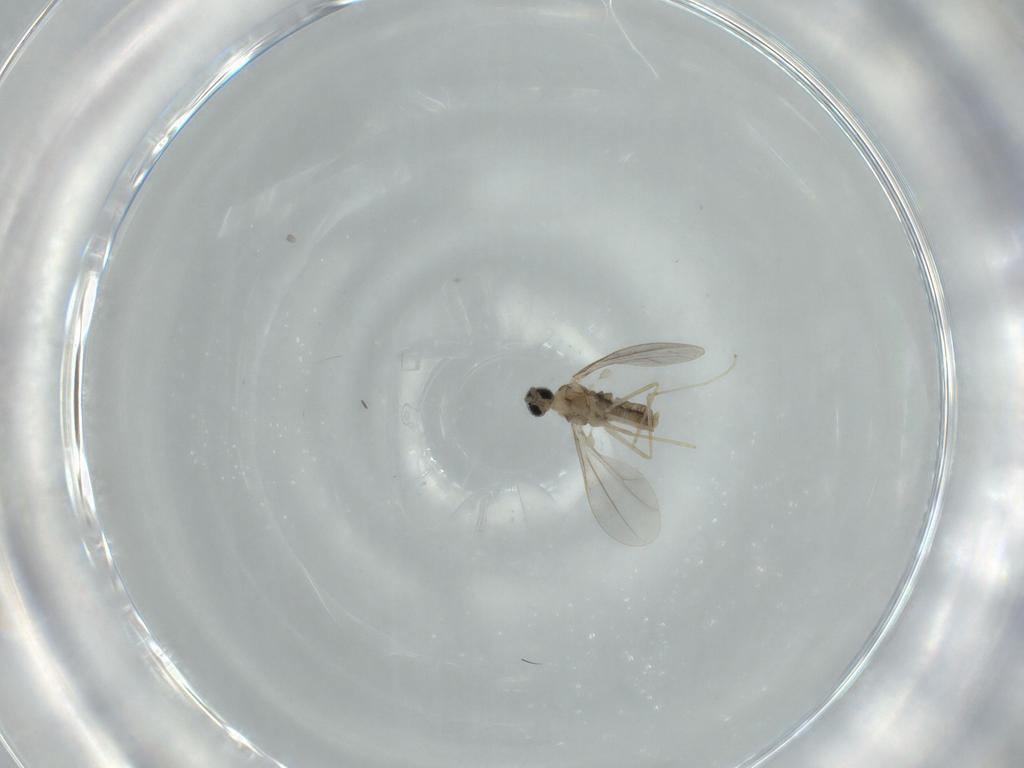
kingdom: Animalia
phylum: Arthropoda
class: Insecta
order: Diptera
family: Cecidomyiidae
